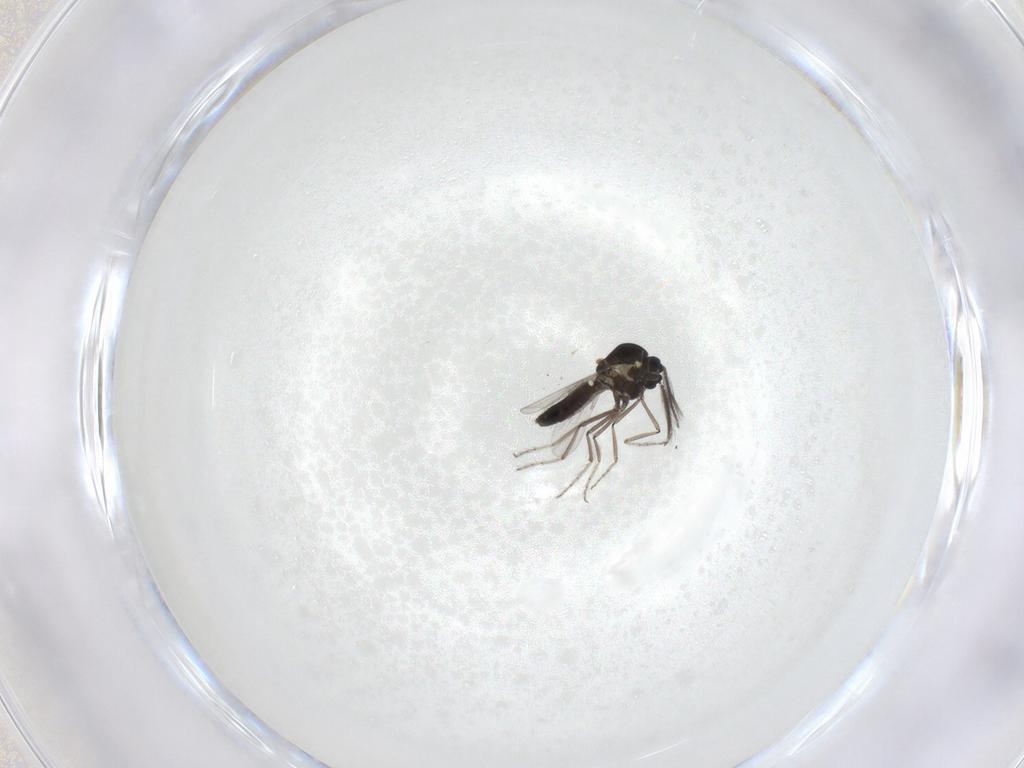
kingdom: Animalia
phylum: Arthropoda
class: Insecta
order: Diptera
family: Ceratopogonidae
